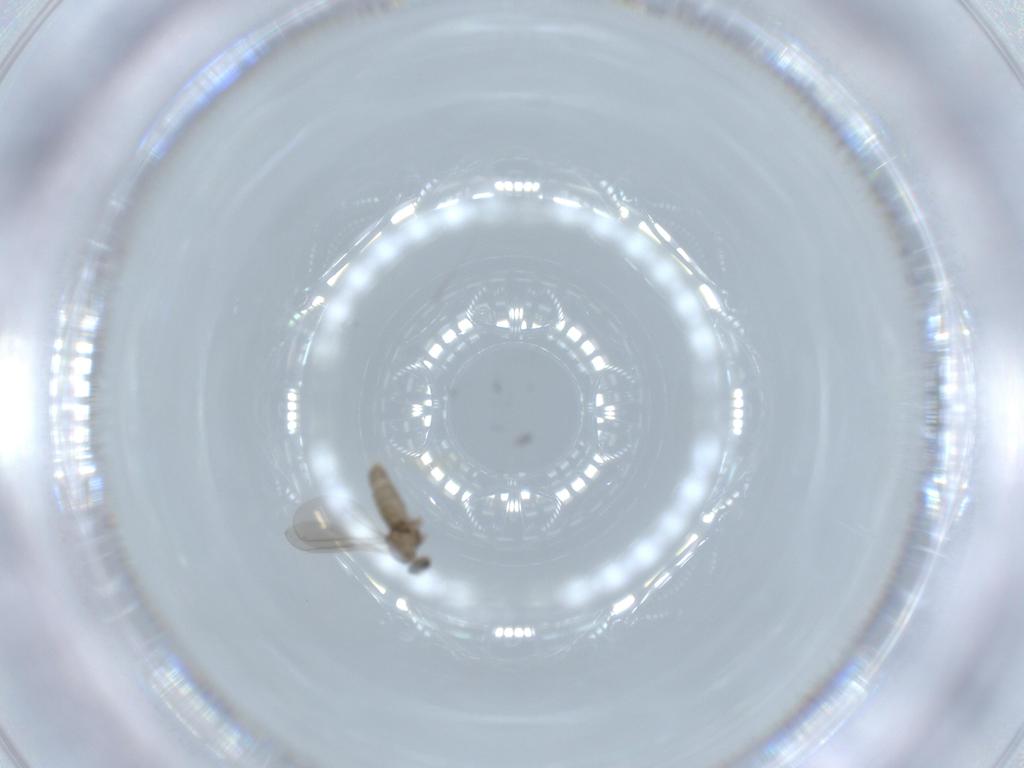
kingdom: Animalia
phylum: Arthropoda
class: Insecta
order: Diptera
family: Cecidomyiidae
